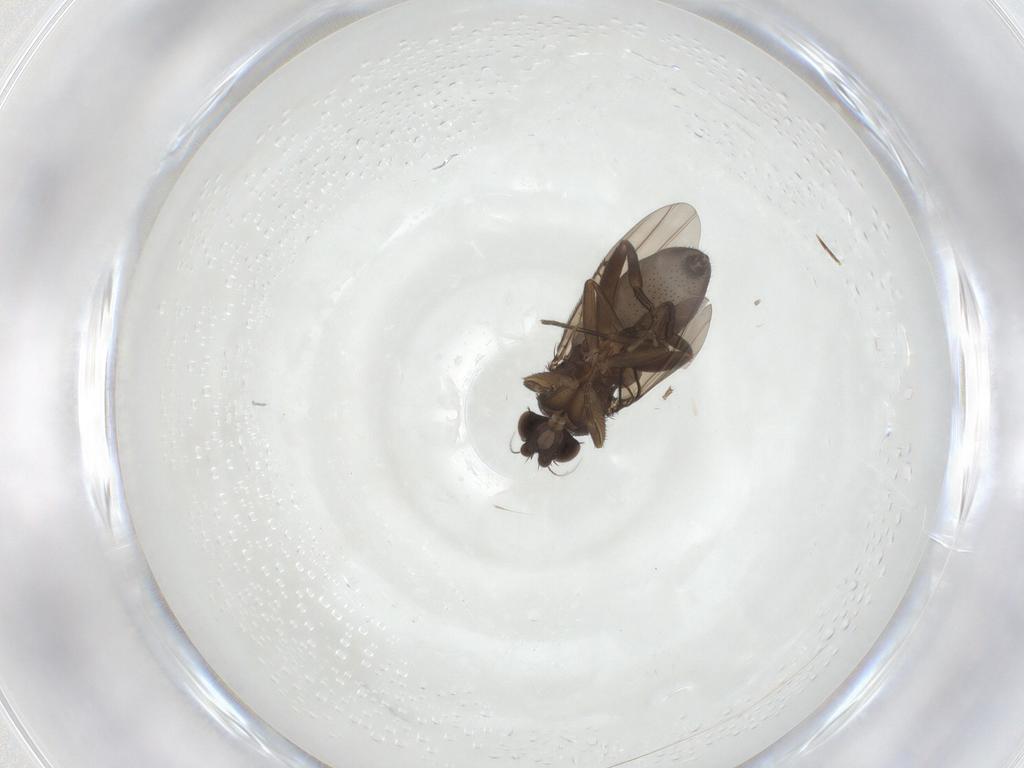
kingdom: Animalia
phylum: Arthropoda
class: Insecta
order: Diptera
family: Phoridae
